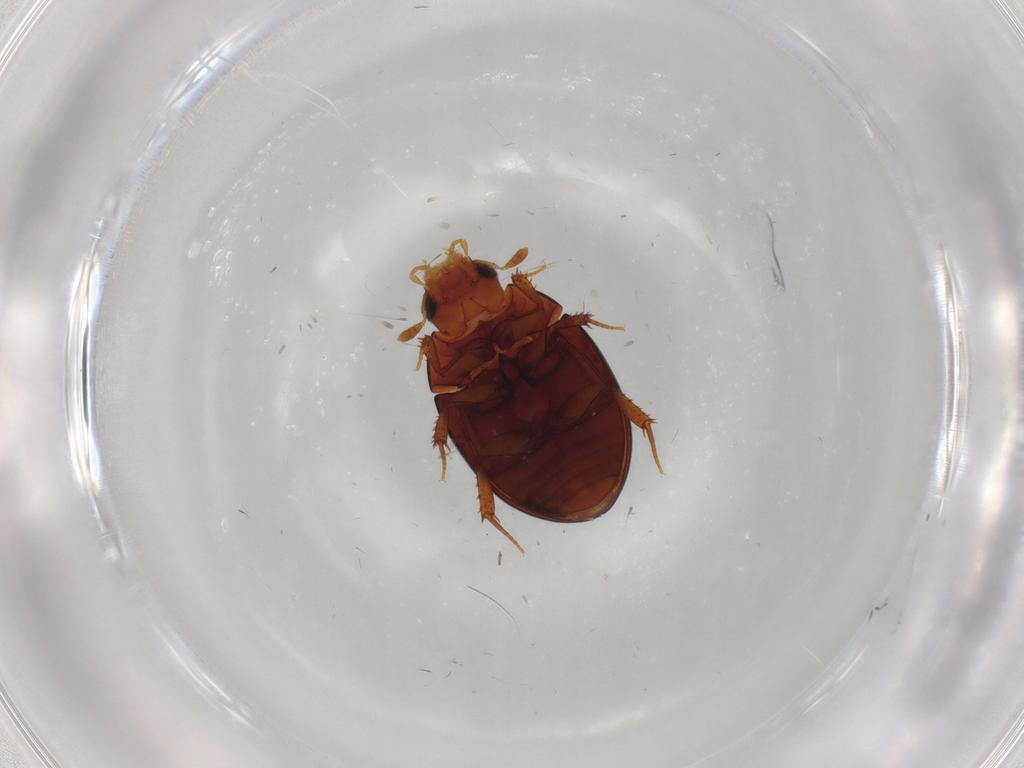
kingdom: Animalia
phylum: Arthropoda
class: Insecta
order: Coleoptera
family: Hydrophilidae
